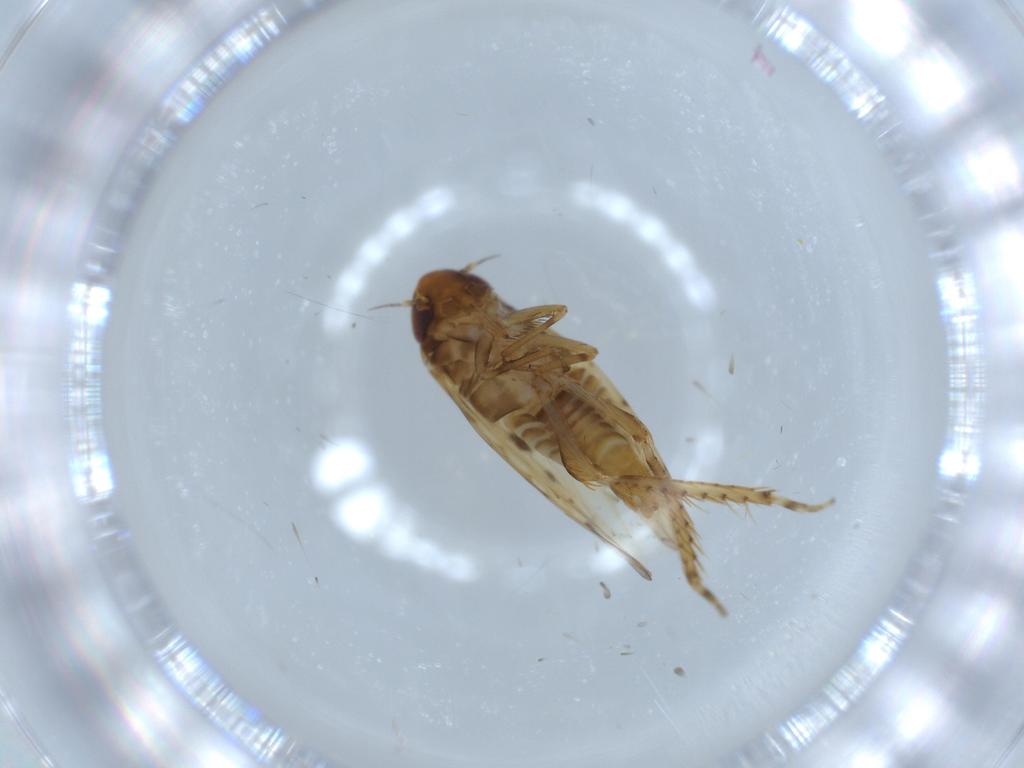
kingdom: Animalia
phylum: Arthropoda
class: Insecta
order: Hemiptera
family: Cicadellidae
